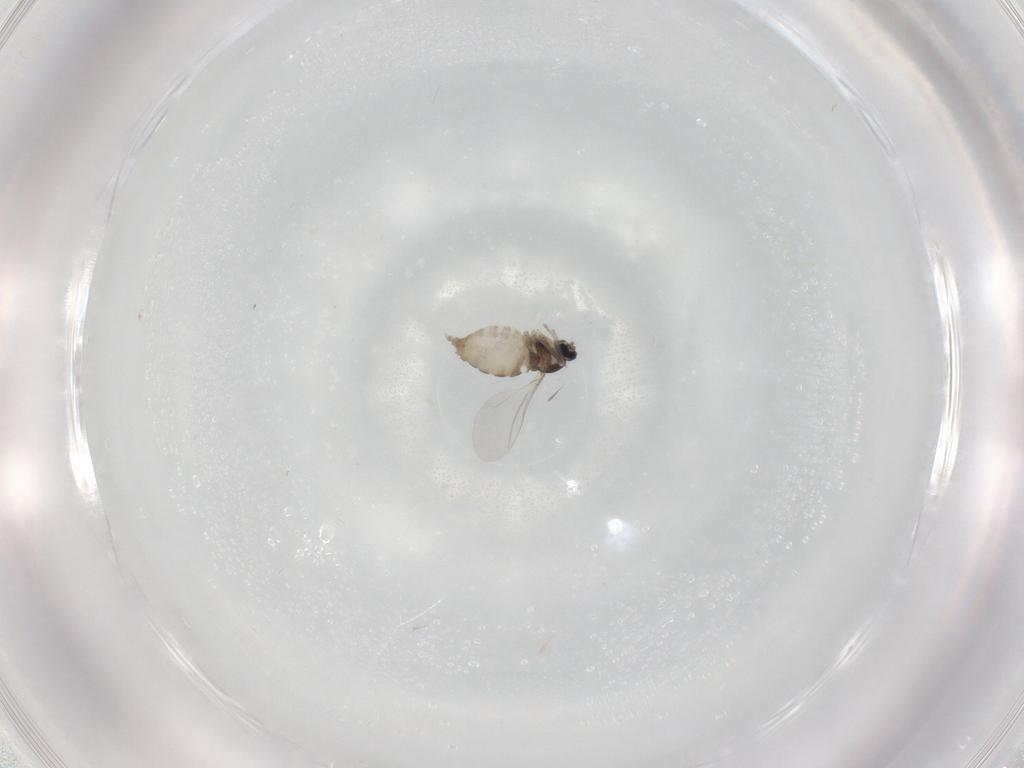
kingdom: Animalia
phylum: Arthropoda
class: Insecta
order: Diptera
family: Cecidomyiidae
